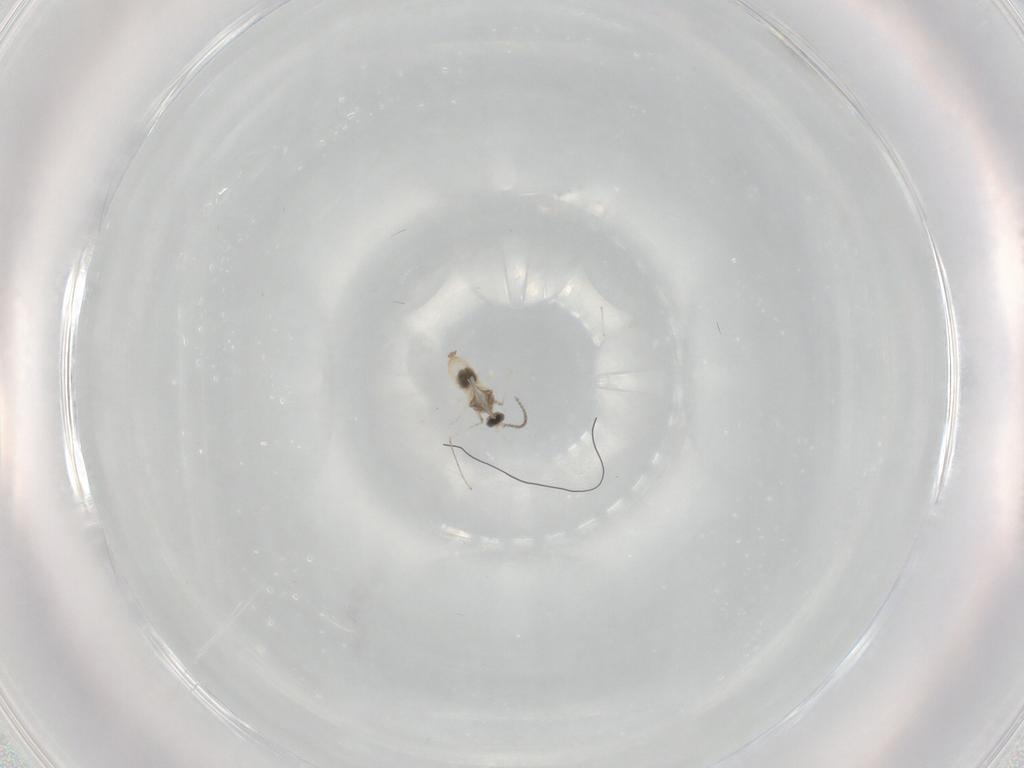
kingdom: Animalia
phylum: Arthropoda
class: Insecta
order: Diptera
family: Cecidomyiidae
